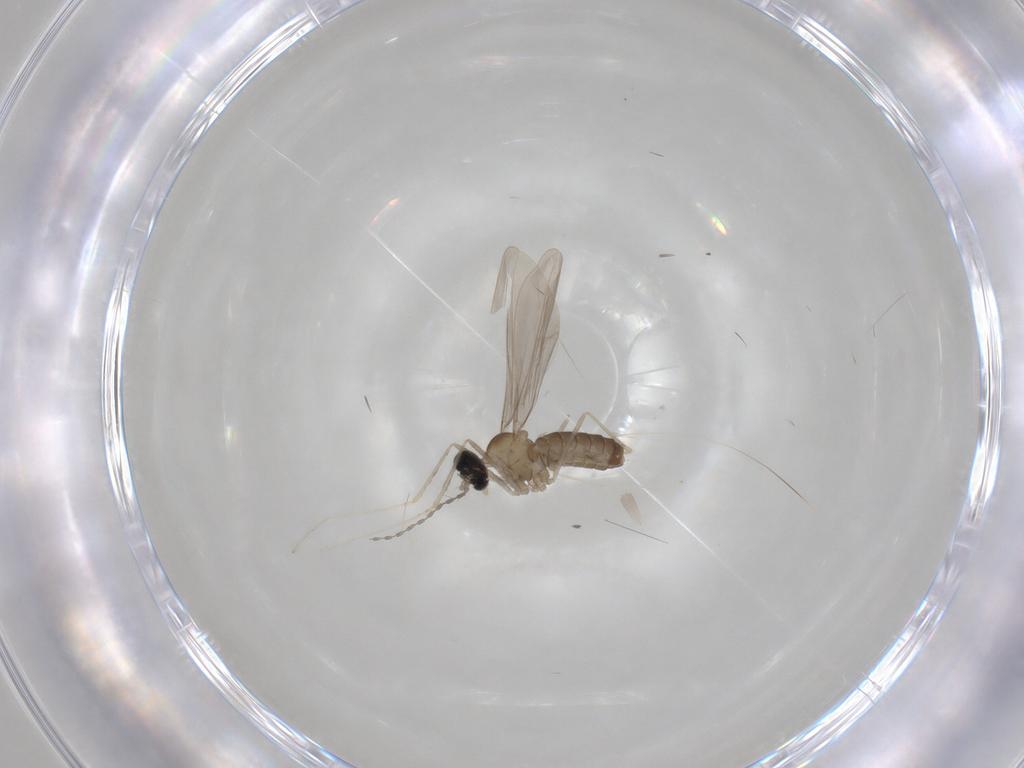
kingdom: Animalia
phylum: Arthropoda
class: Insecta
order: Diptera
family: Cecidomyiidae
